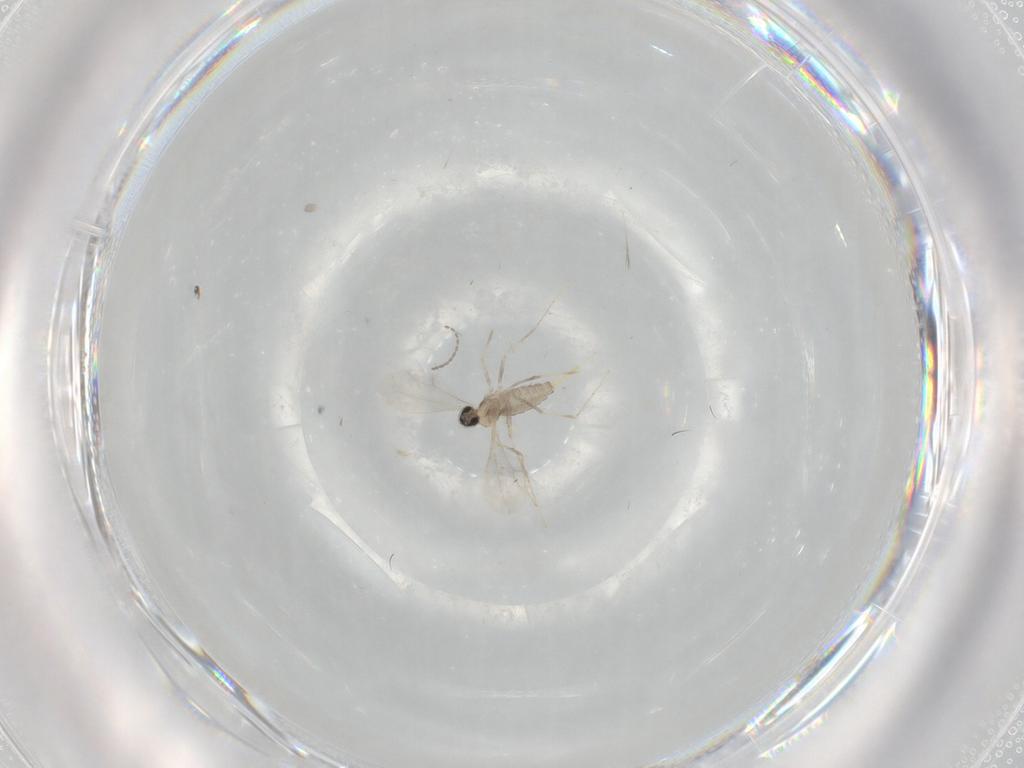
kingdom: Animalia
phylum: Arthropoda
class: Insecta
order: Diptera
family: Cecidomyiidae
